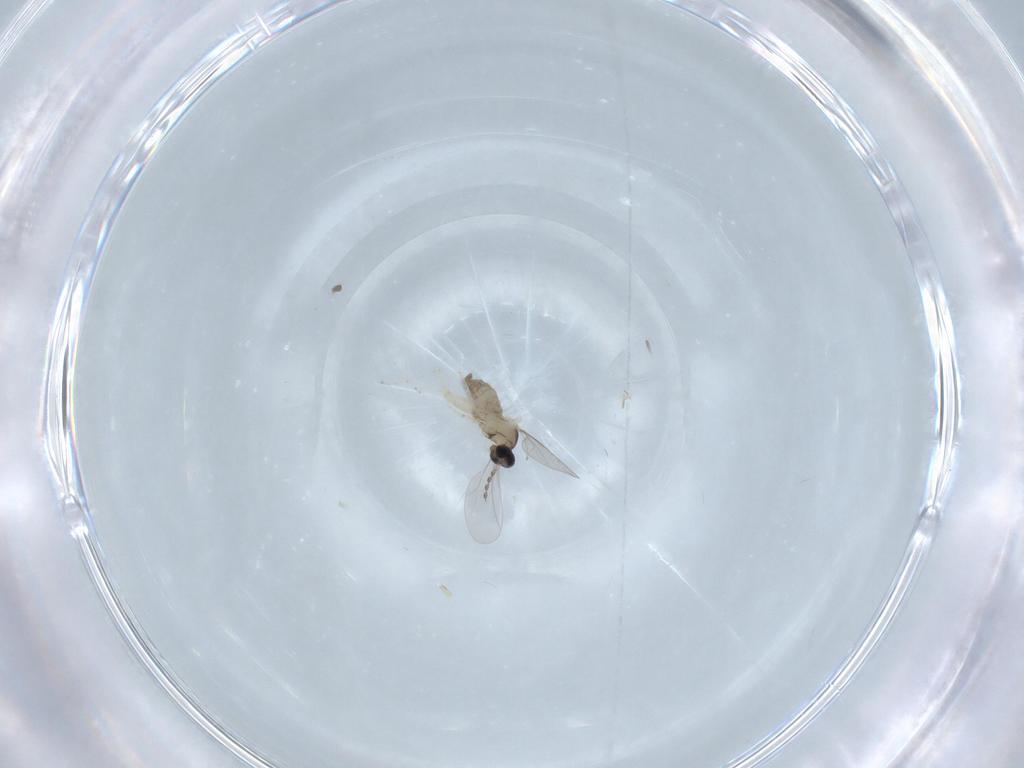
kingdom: Animalia
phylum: Arthropoda
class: Insecta
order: Diptera
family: Cecidomyiidae
